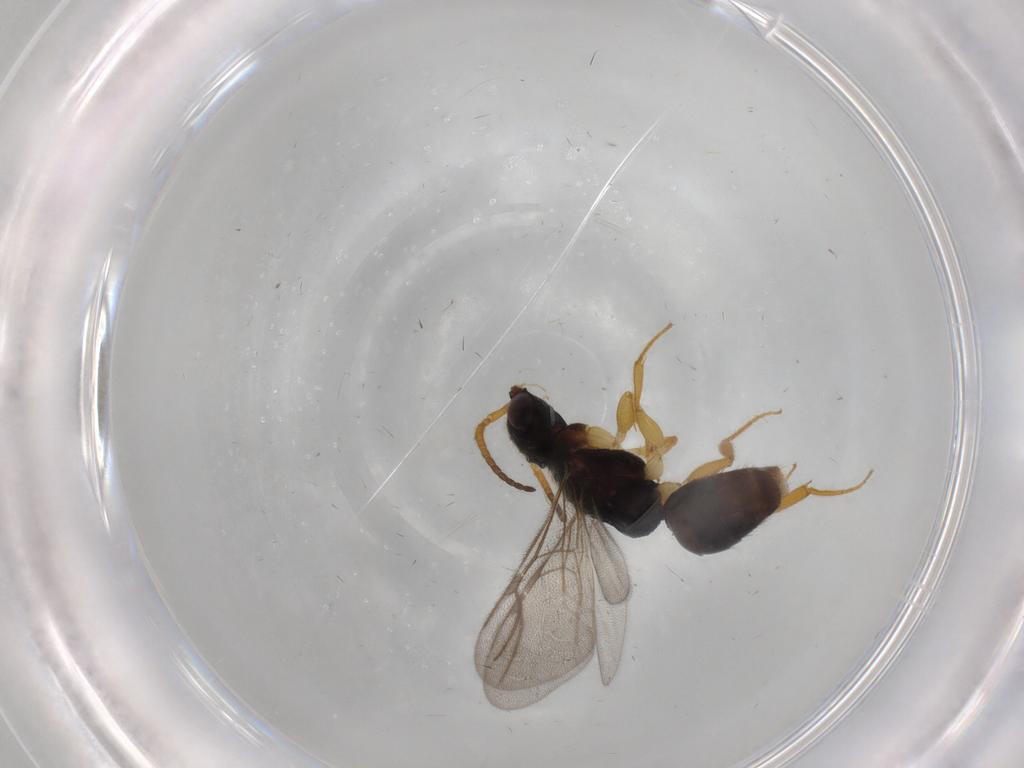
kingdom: Animalia
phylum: Arthropoda
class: Insecta
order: Hymenoptera
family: Bethylidae
